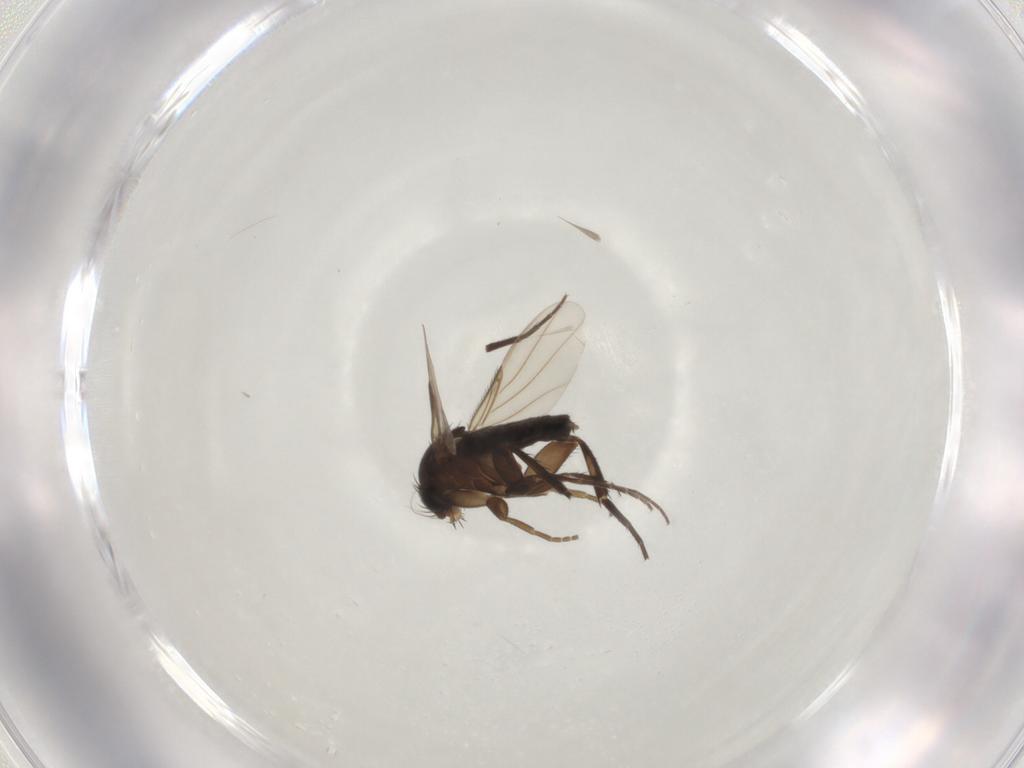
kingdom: Animalia
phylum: Arthropoda
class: Insecta
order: Diptera
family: Phoridae
